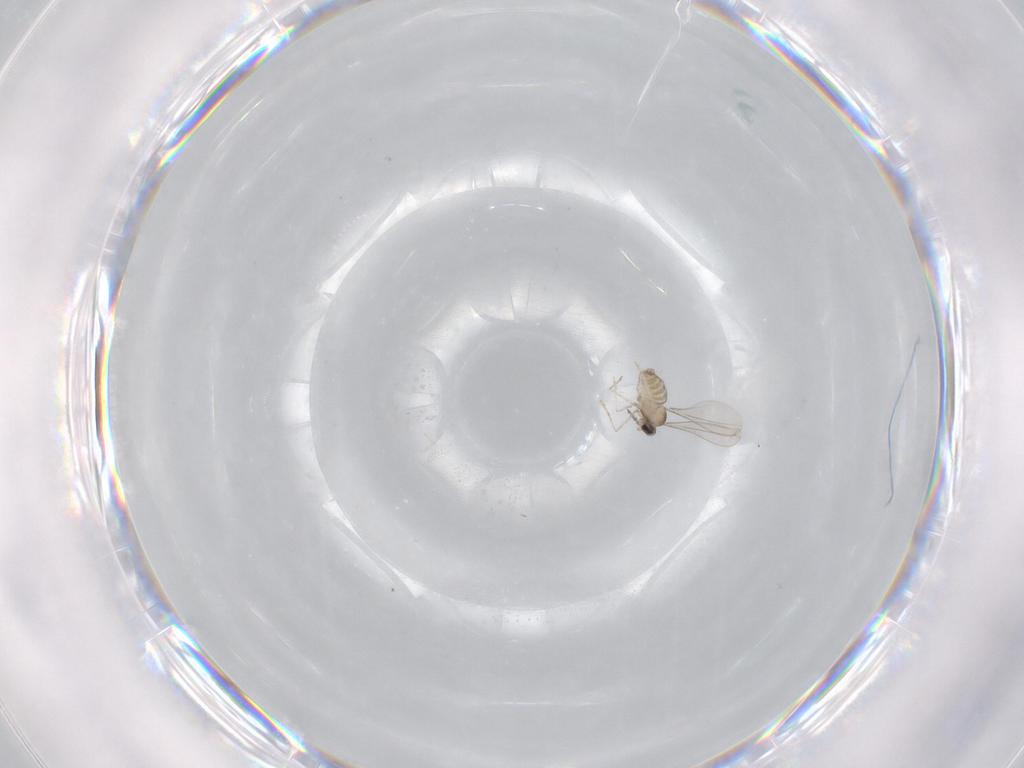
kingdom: Animalia
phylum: Arthropoda
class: Insecta
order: Diptera
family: Cecidomyiidae
